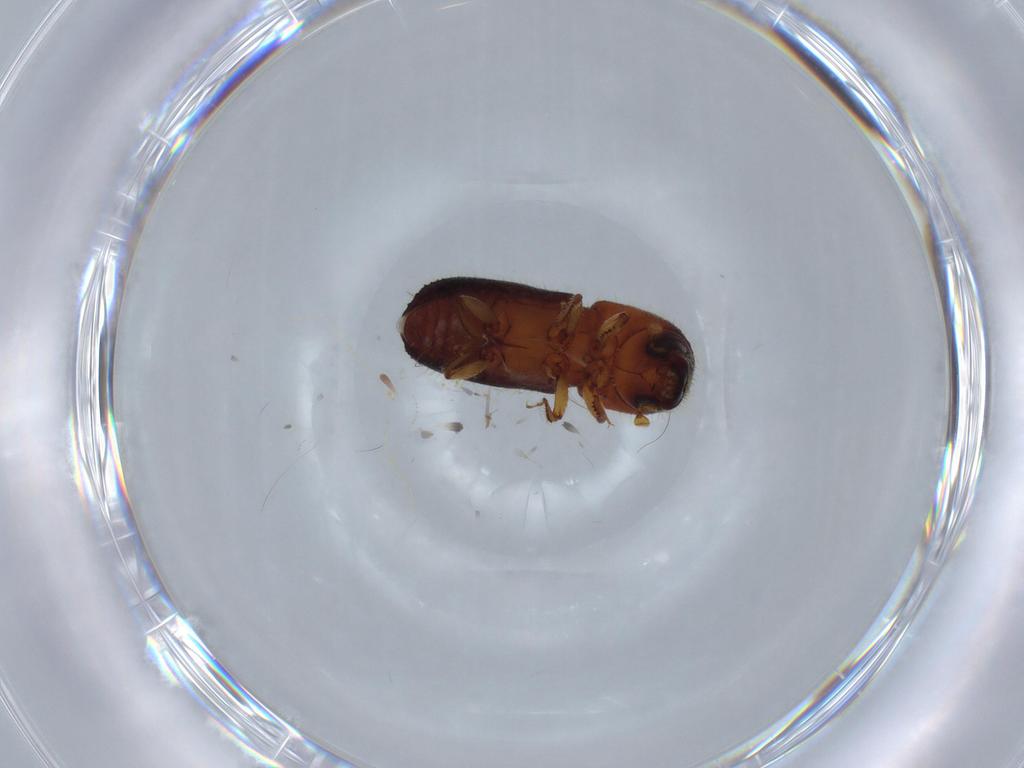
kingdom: Animalia
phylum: Arthropoda
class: Insecta
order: Coleoptera
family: Curculionidae
